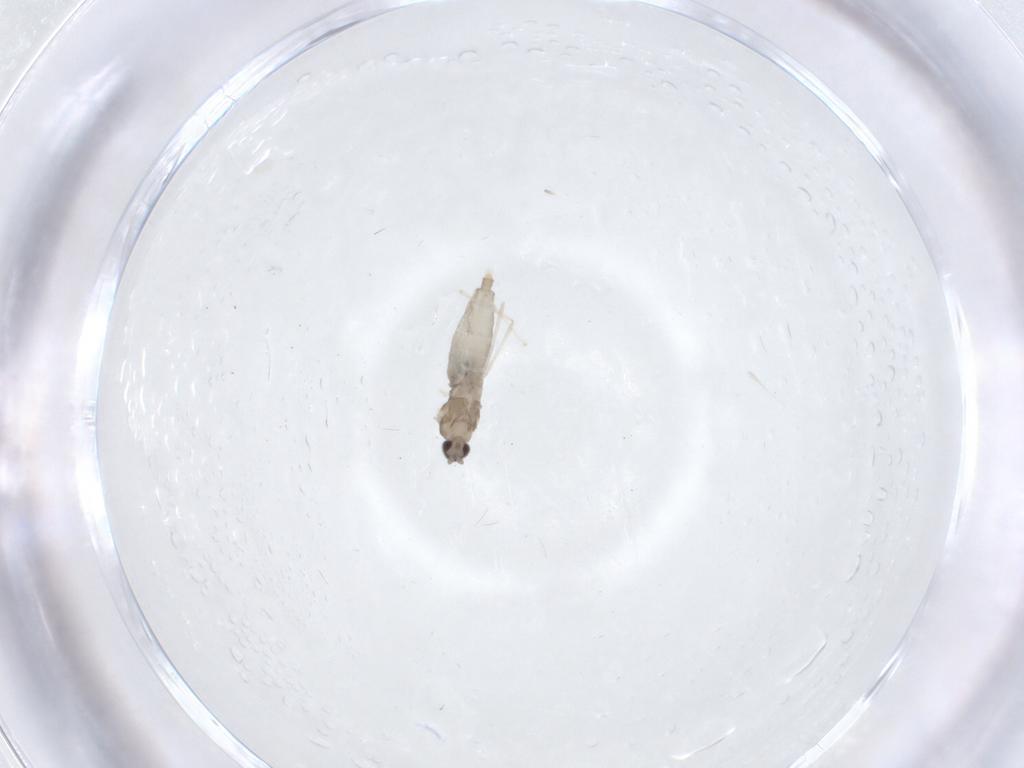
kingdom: Animalia
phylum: Arthropoda
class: Insecta
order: Diptera
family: Cecidomyiidae
